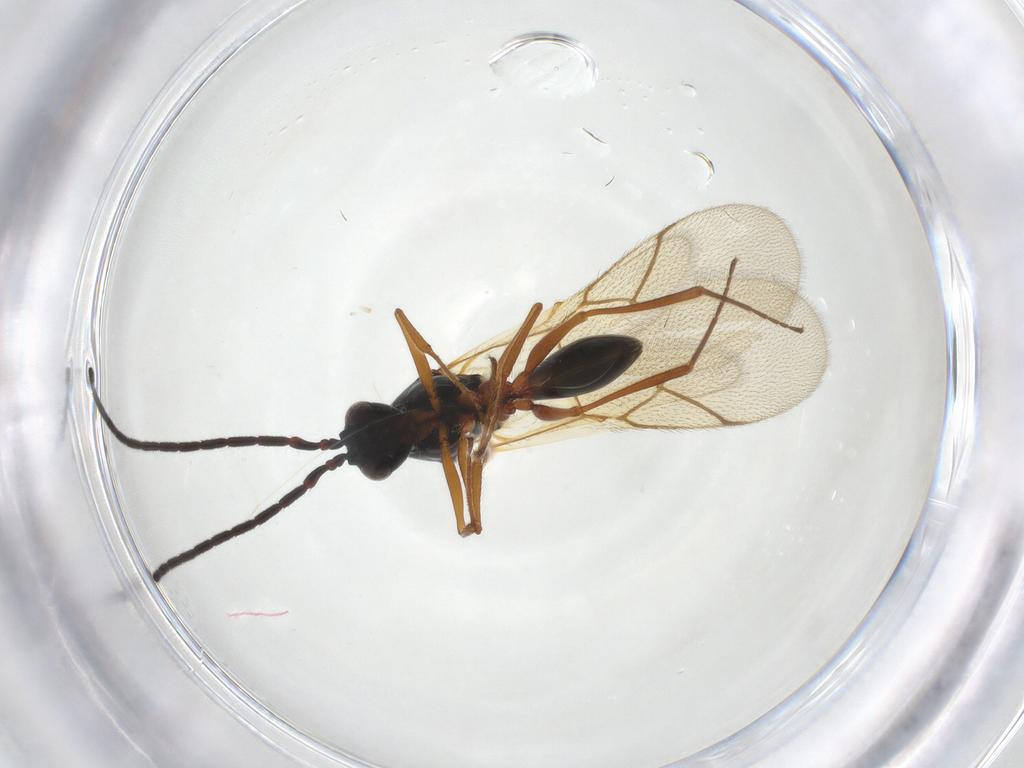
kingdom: Animalia
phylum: Arthropoda
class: Insecta
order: Hymenoptera
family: Figitidae
